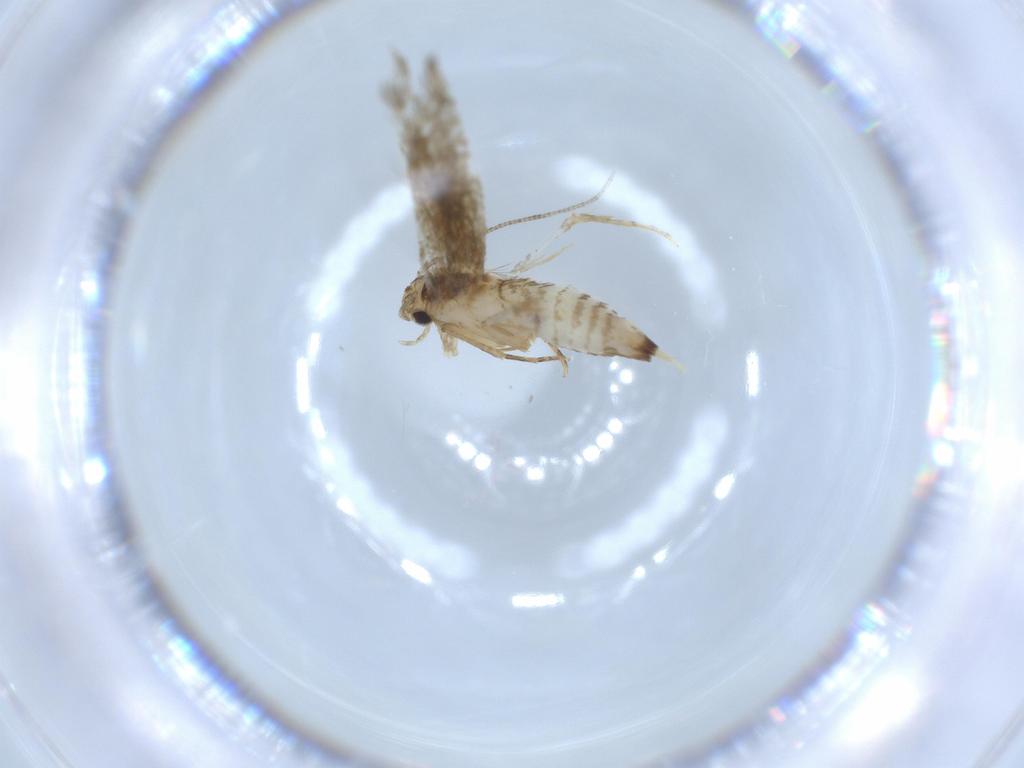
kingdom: Animalia
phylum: Arthropoda
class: Insecta
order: Lepidoptera
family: Tineidae
